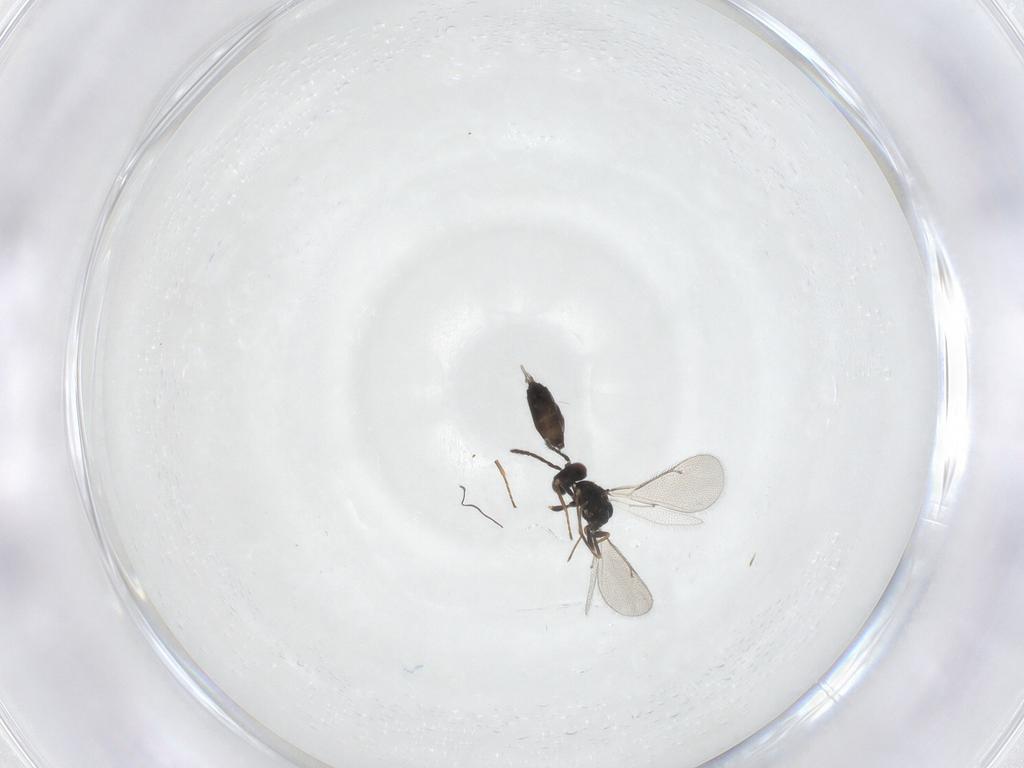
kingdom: Animalia
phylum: Arthropoda
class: Insecta
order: Hymenoptera
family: Eulophidae
